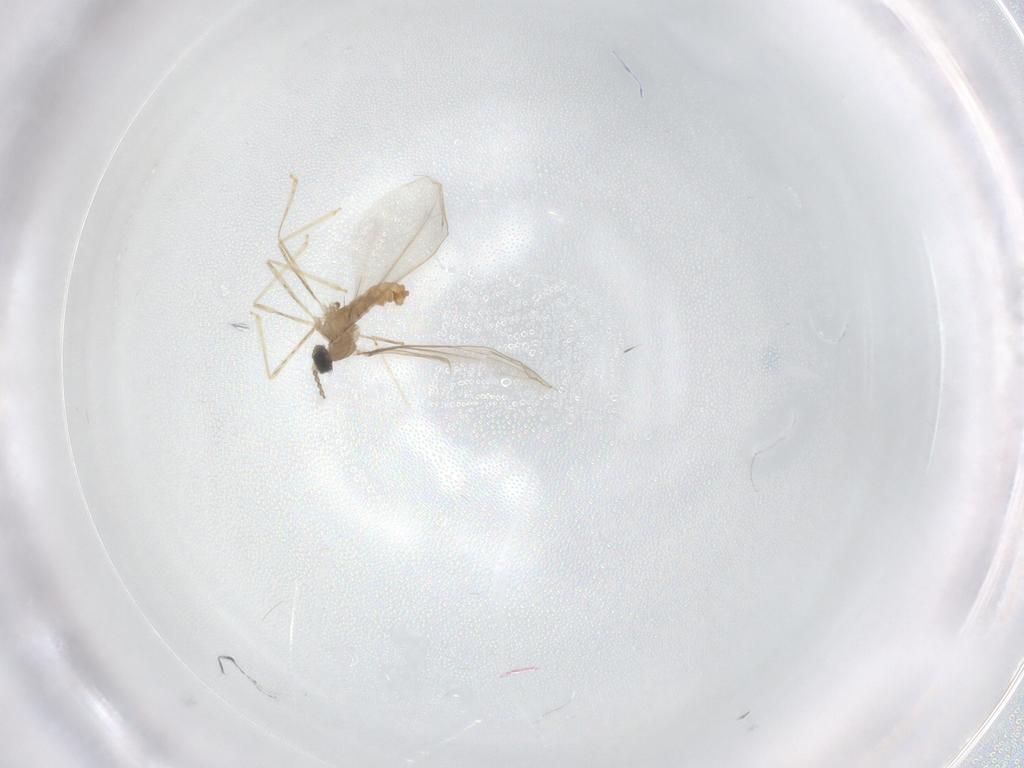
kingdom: Animalia
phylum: Arthropoda
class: Insecta
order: Diptera
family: Cecidomyiidae
